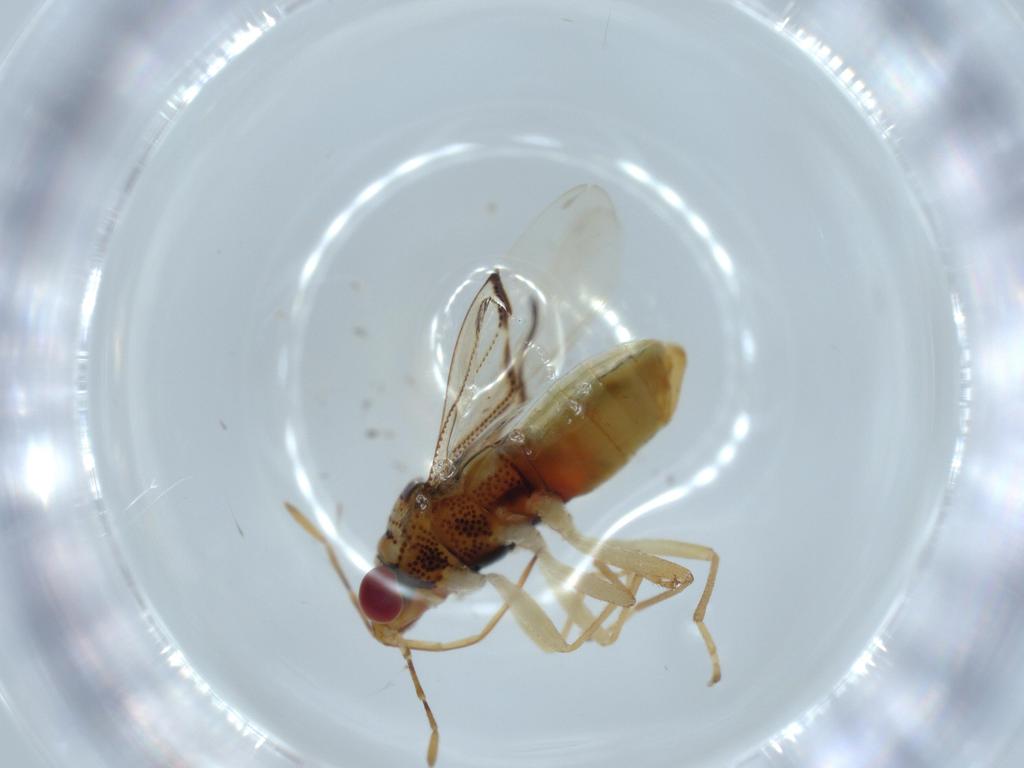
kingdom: Animalia
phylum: Arthropoda
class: Insecta
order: Hemiptera
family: Geocoridae
